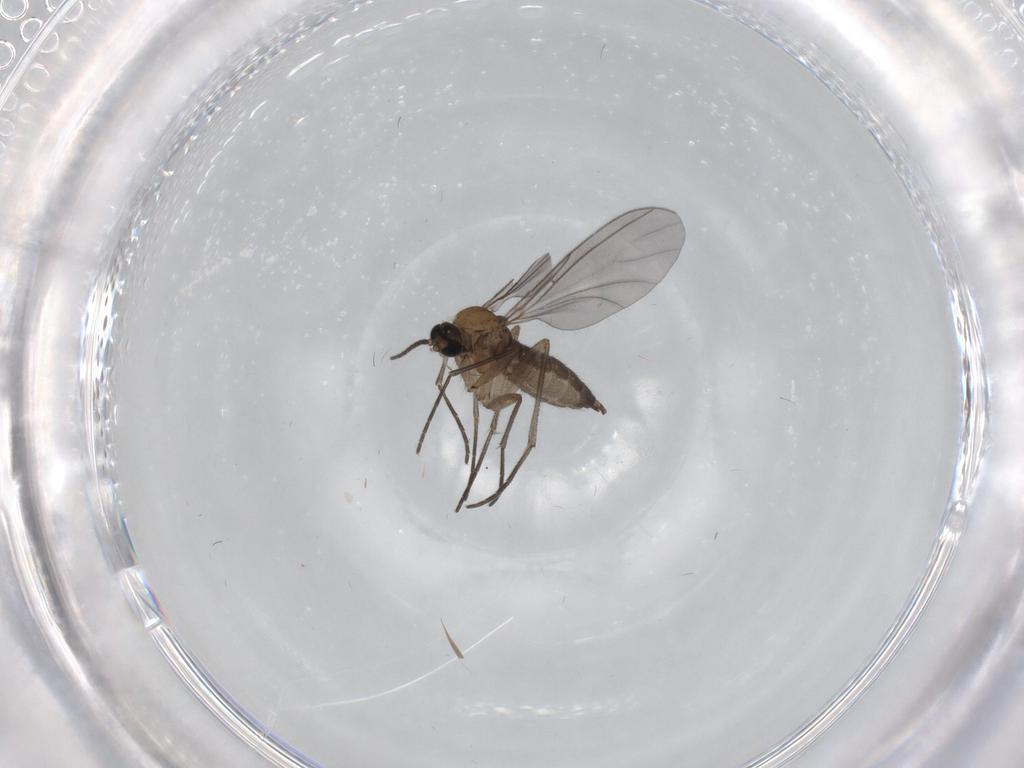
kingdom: Animalia
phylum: Arthropoda
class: Insecta
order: Diptera
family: Sciaridae
